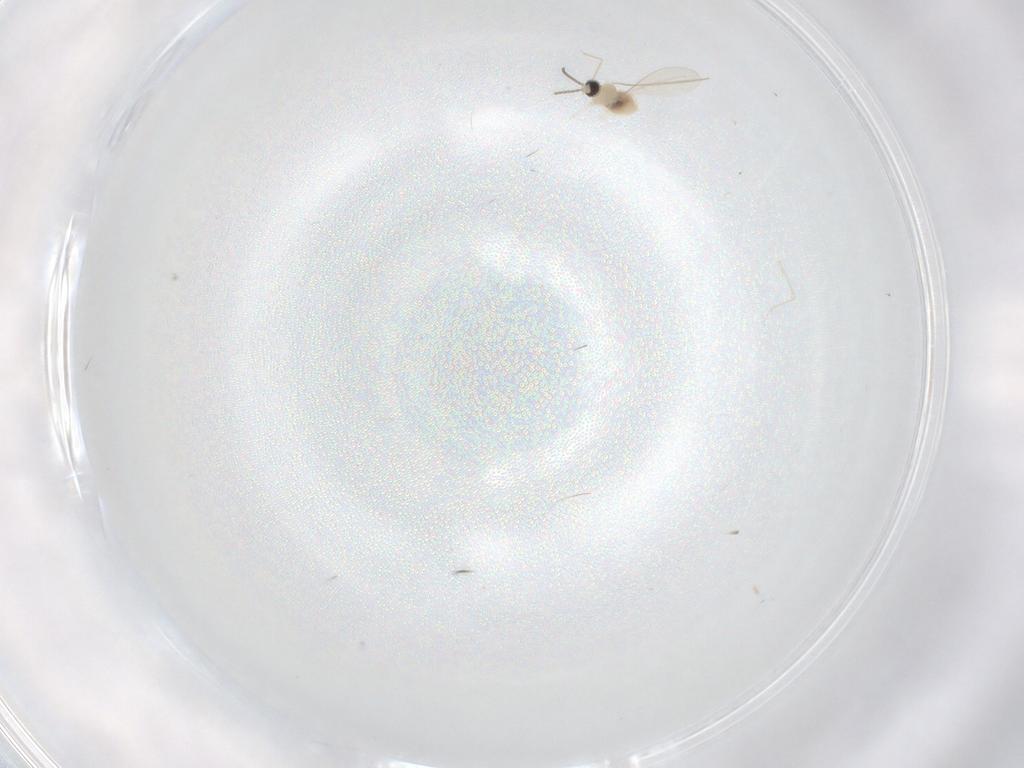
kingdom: Animalia
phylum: Arthropoda
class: Insecta
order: Diptera
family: Cecidomyiidae
